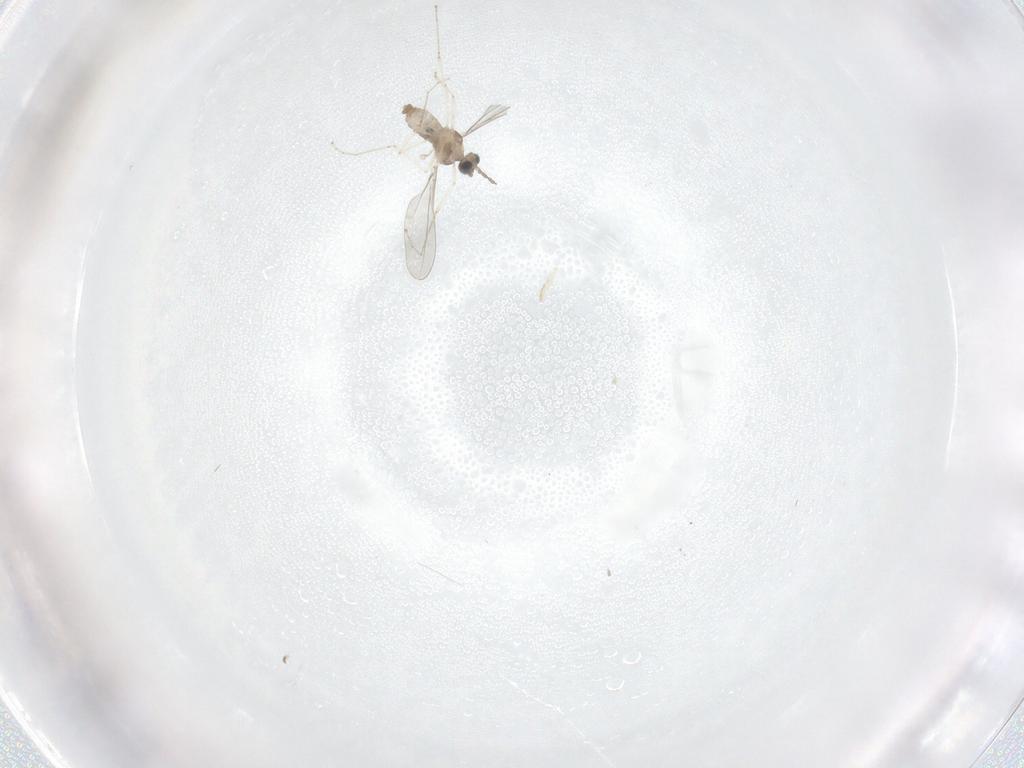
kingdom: Animalia
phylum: Arthropoda
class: Insecta
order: Diptera
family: Cecidomyiidae
